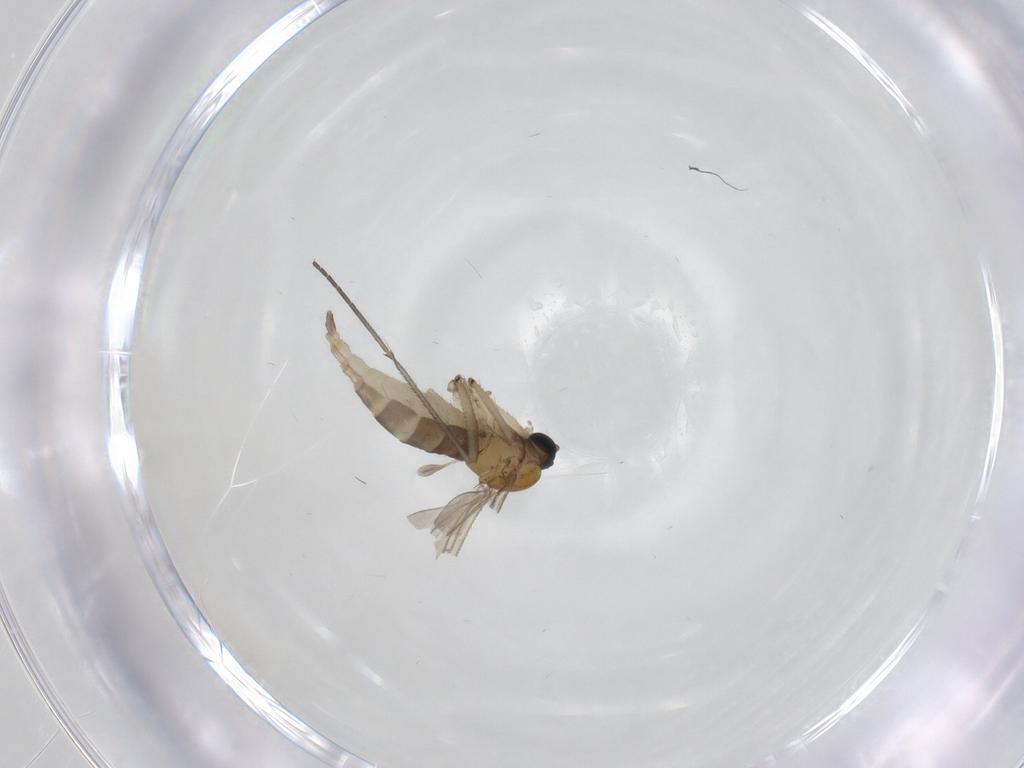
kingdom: Animalia
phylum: Arthropoda
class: Insecta
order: Diptera
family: Sciaridae
